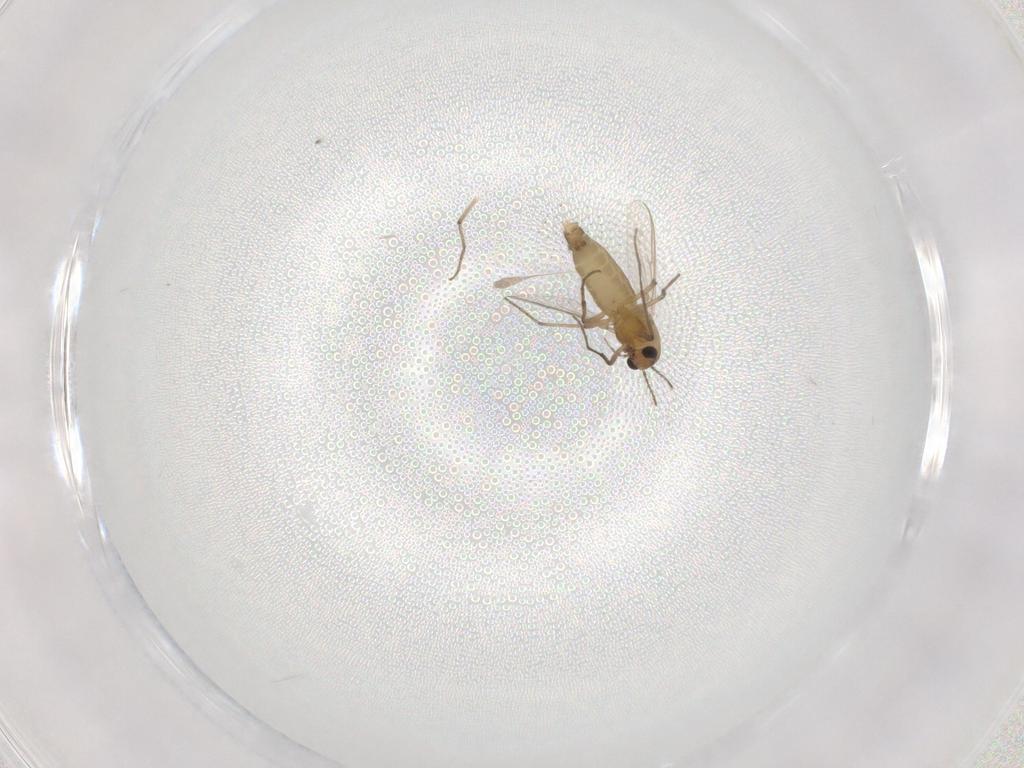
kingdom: Animalia
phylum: Arthropoda
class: Insecta
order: Diptera
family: Chironomidae
